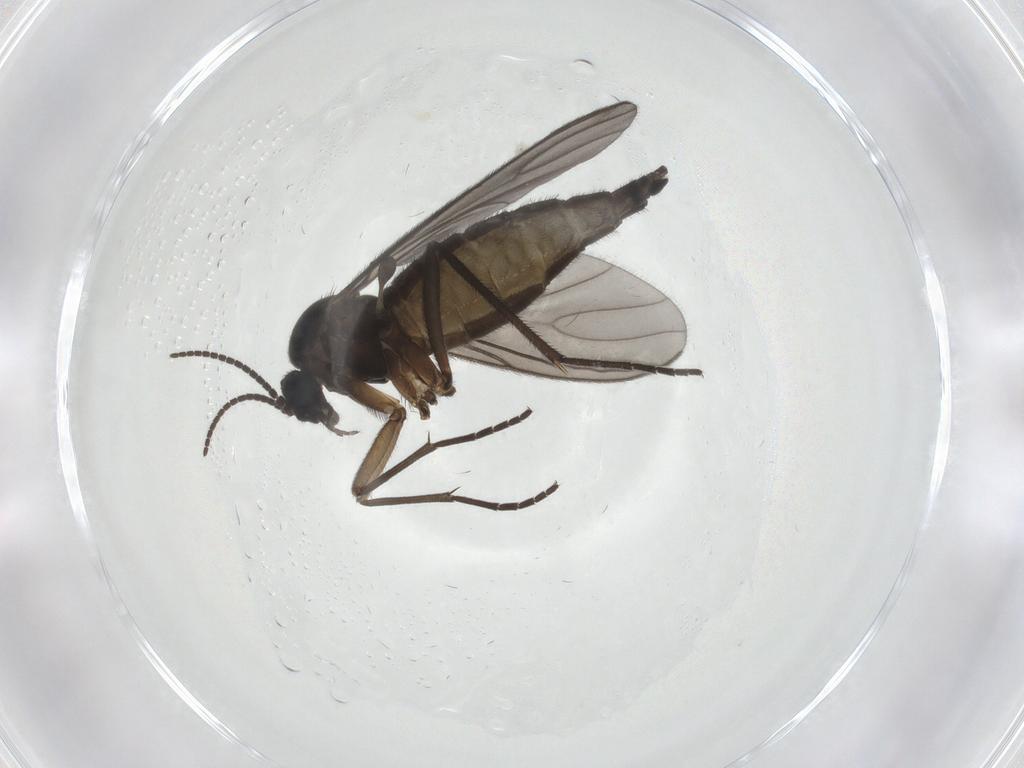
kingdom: Animalia
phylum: Arthropoda
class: Insecta
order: Diptera
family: Sciaridae
